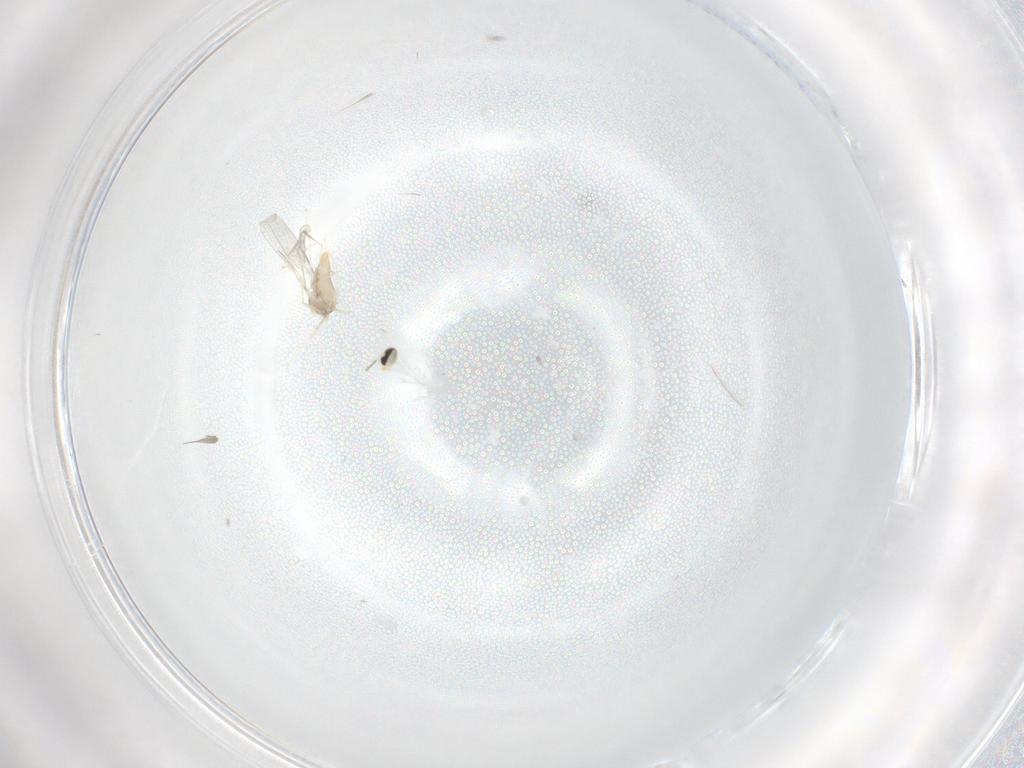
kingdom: Animalia
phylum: Arthropoda
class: Insecta
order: Diptera
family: Cecidomyiidae
